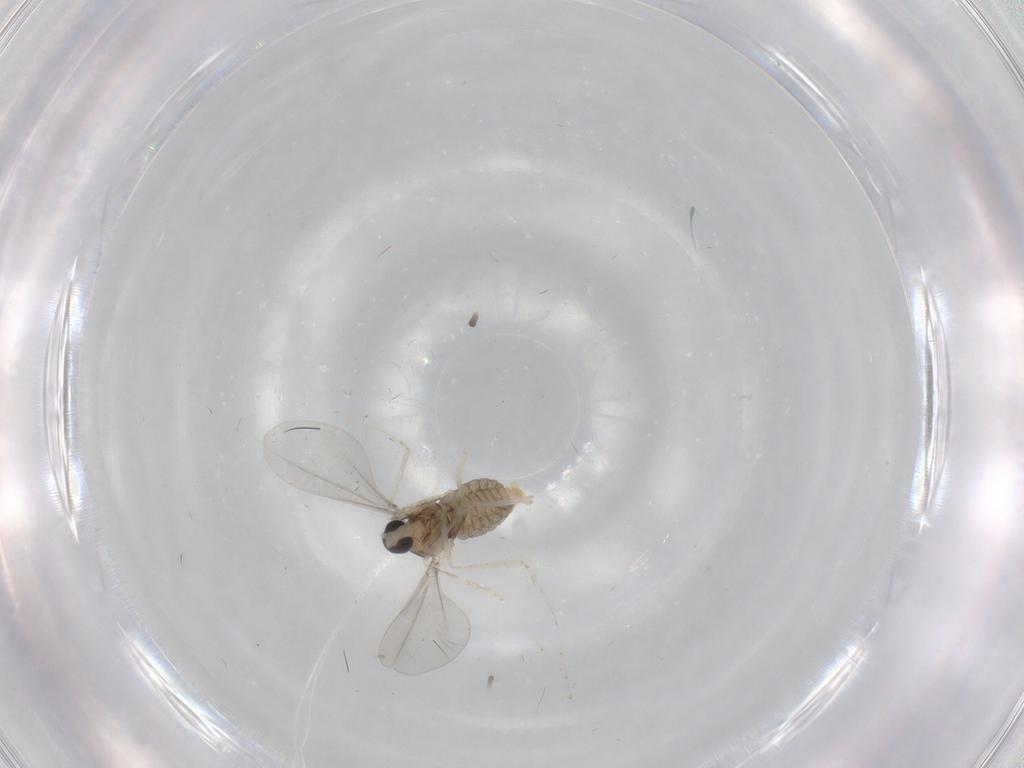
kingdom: Animalia
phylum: Arthropoda
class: Insecta
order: Diptera
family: Cecidomyiidae
